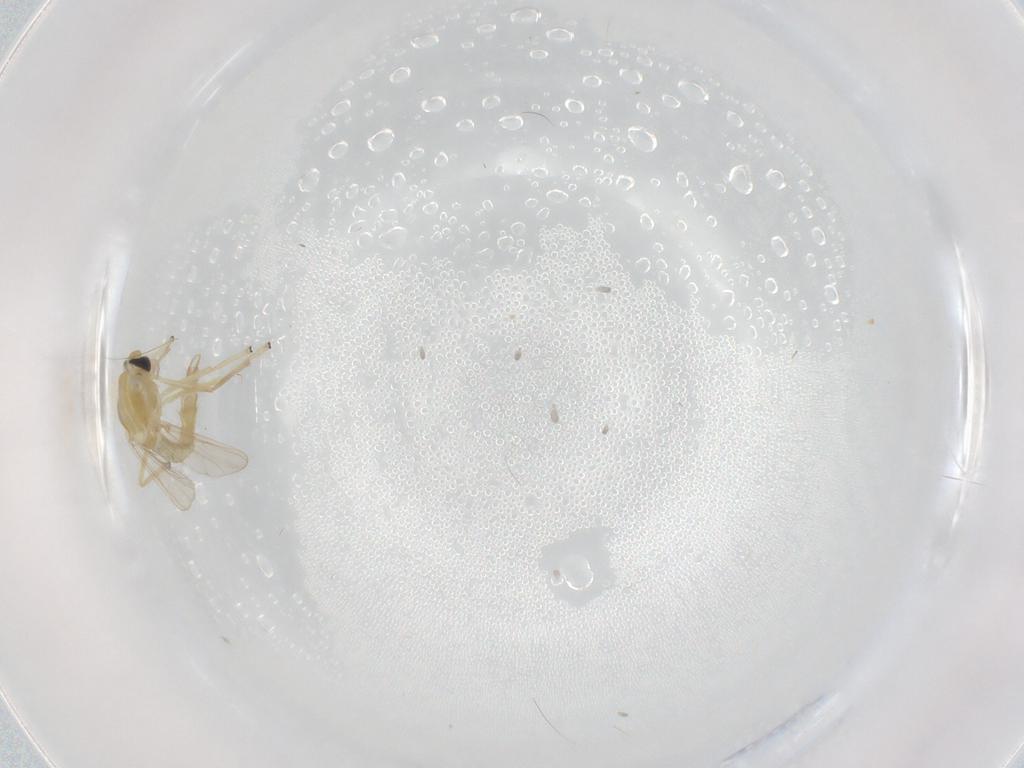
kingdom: Animalia
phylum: Arthropoda
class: Insecta
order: Diptera
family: Chironomidae
